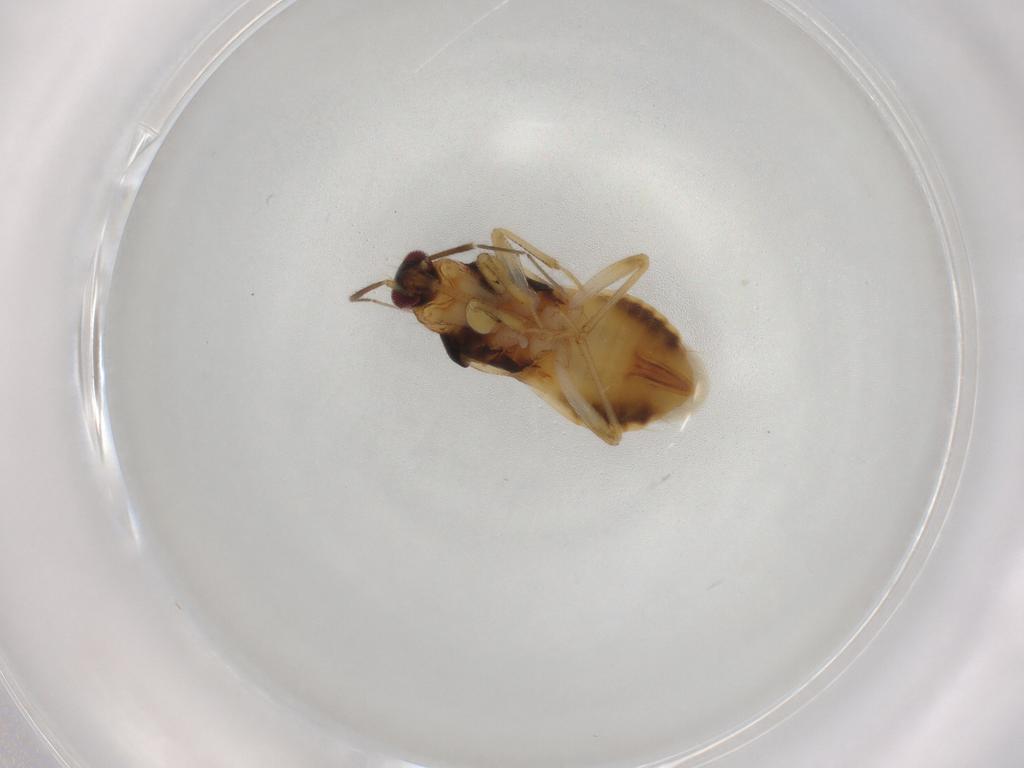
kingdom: Animalia
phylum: Arthropoda
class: Insecta
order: Hemiptera
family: Nabidae
